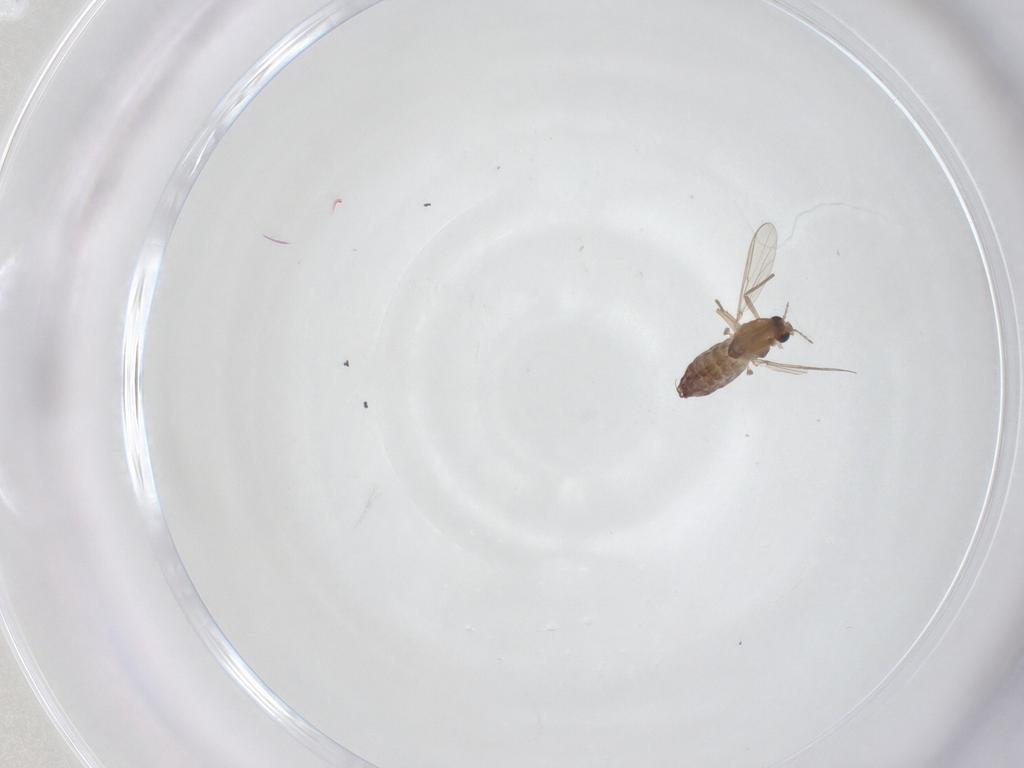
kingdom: Animalia
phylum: Arthropoda
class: Insecta
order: Diptera
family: Chironomidae
